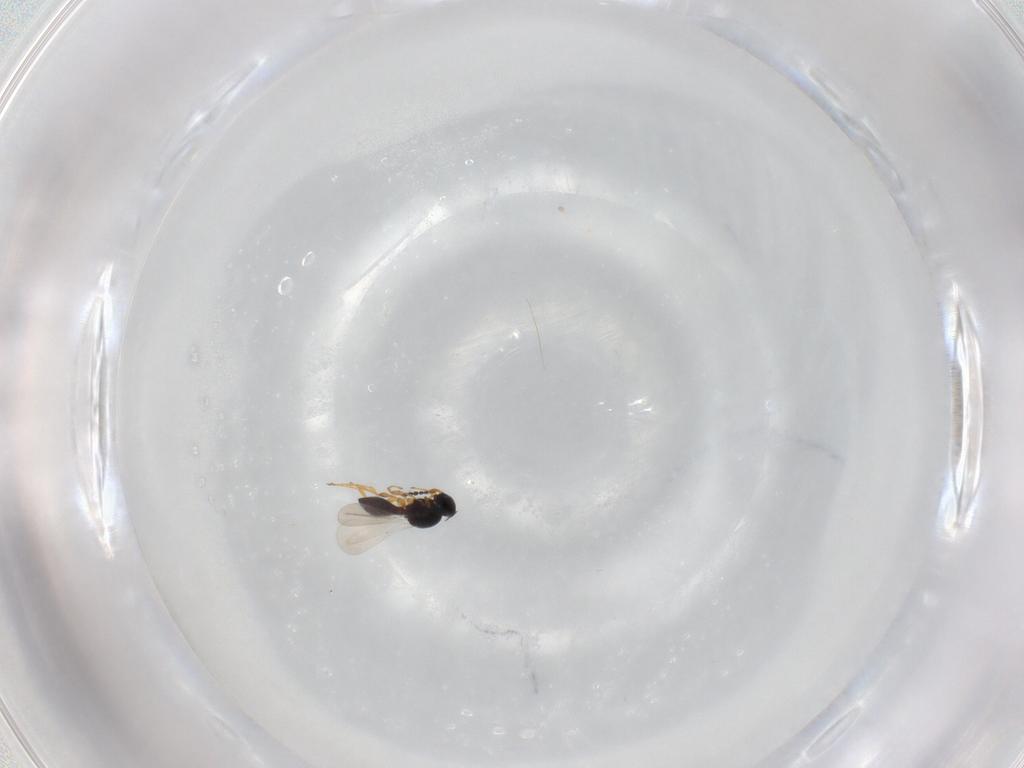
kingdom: Animalia
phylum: Arthropoda
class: Insecta
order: Hymenoptera
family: Platygastridae
